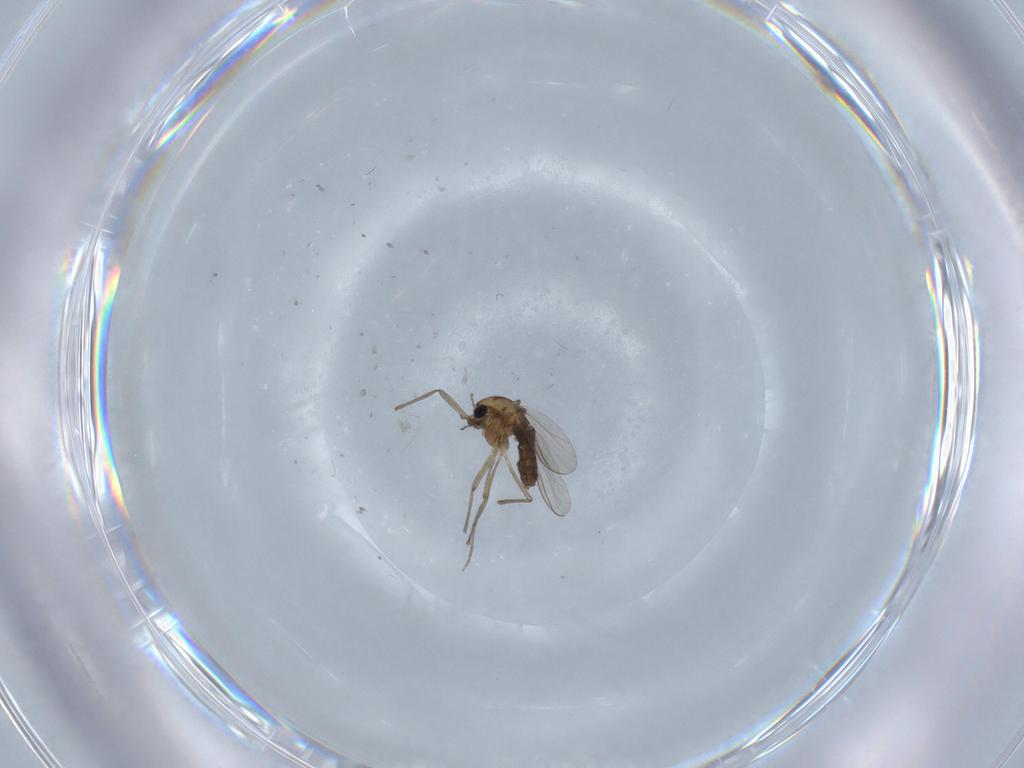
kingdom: Animalia
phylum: Arthropoda
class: Insecta
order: Diptera
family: Chironomidae
